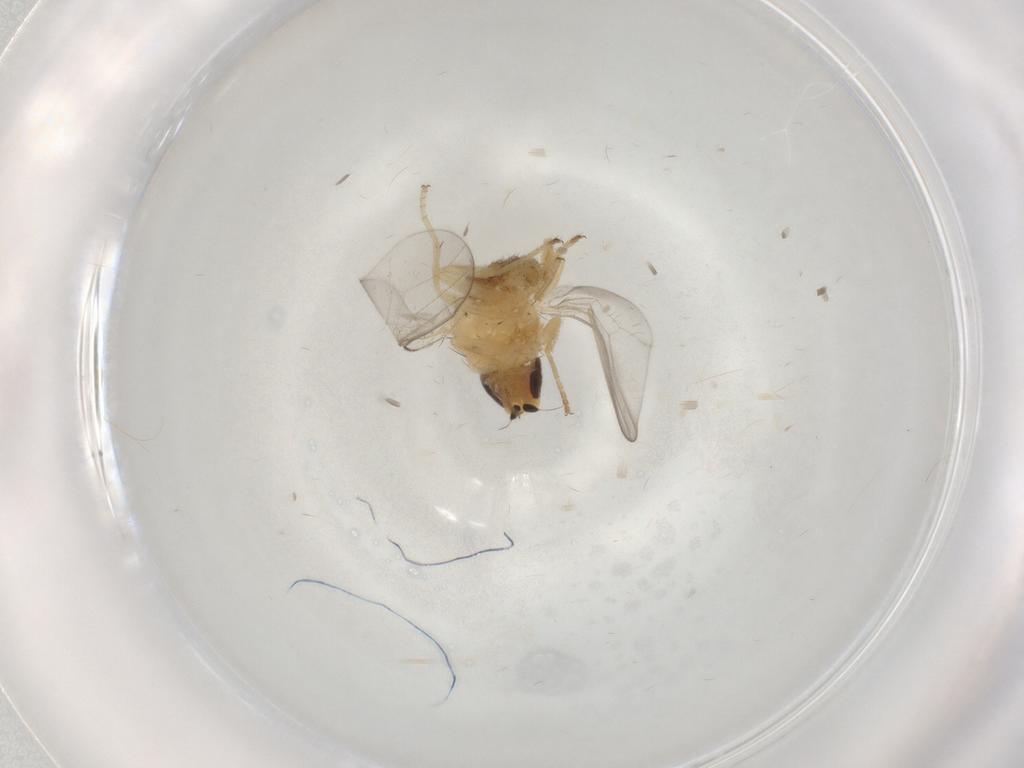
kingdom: Animalia
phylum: Arthropoda
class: Insecta
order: Diptera
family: Chloropidae
